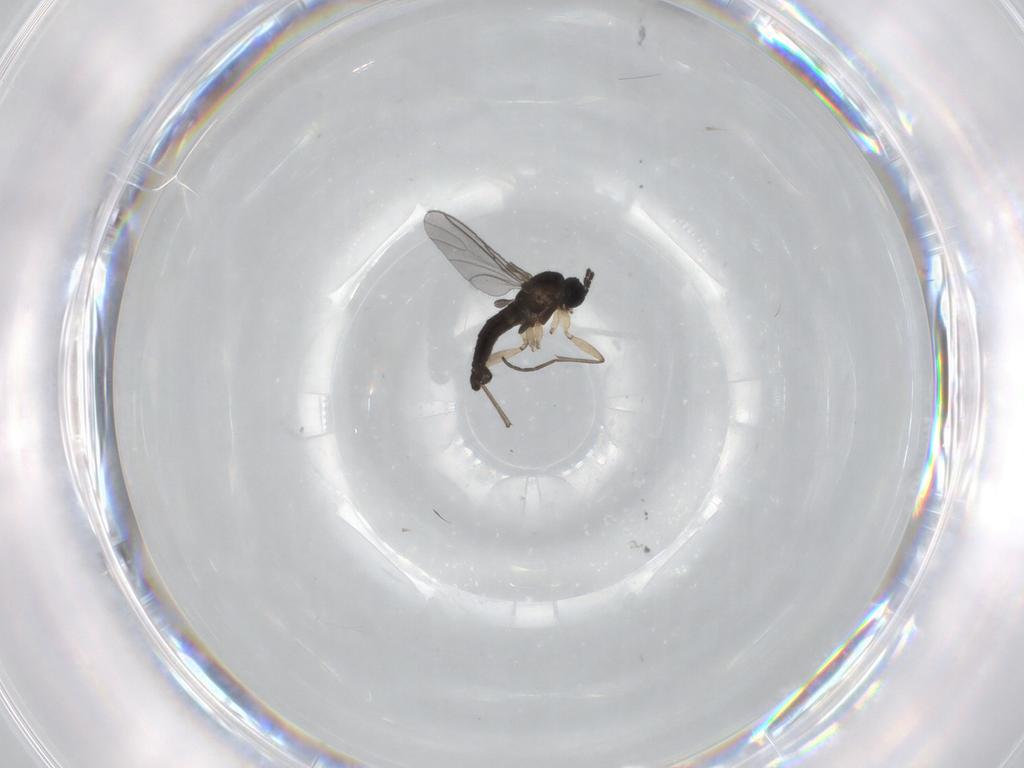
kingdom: Animalia
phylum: Arthropoda
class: Insecta
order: Diptera
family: Sciaridae
